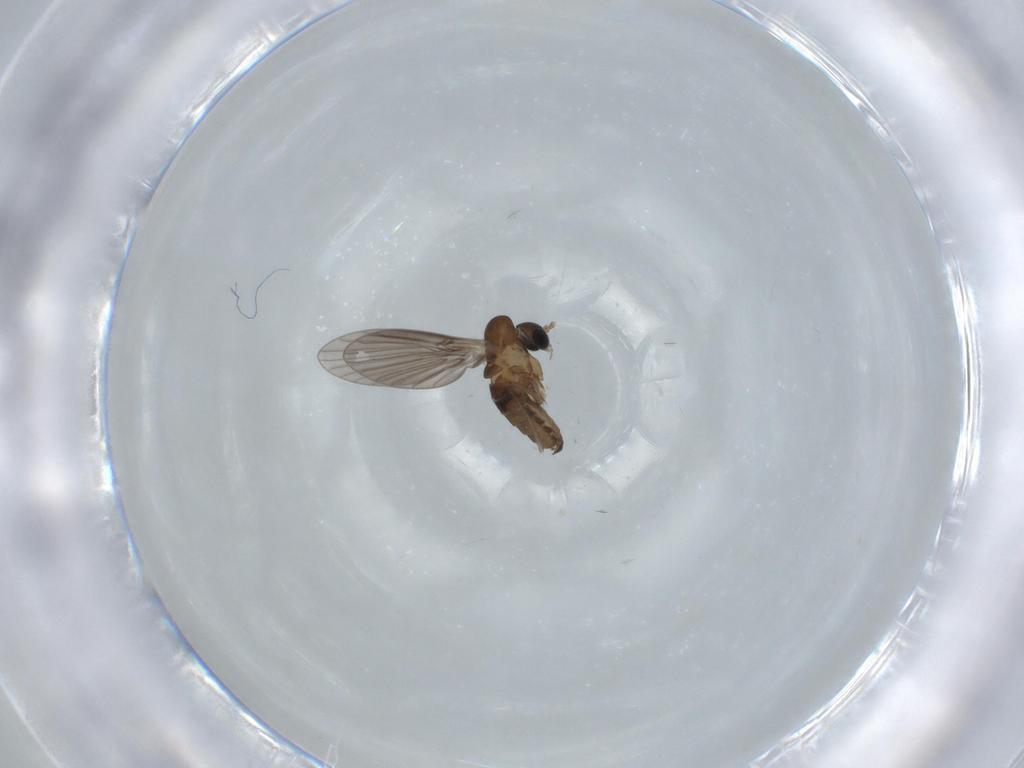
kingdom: Animalia
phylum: Arthropoda
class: Insecta
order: Diptera
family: Psychodidae
